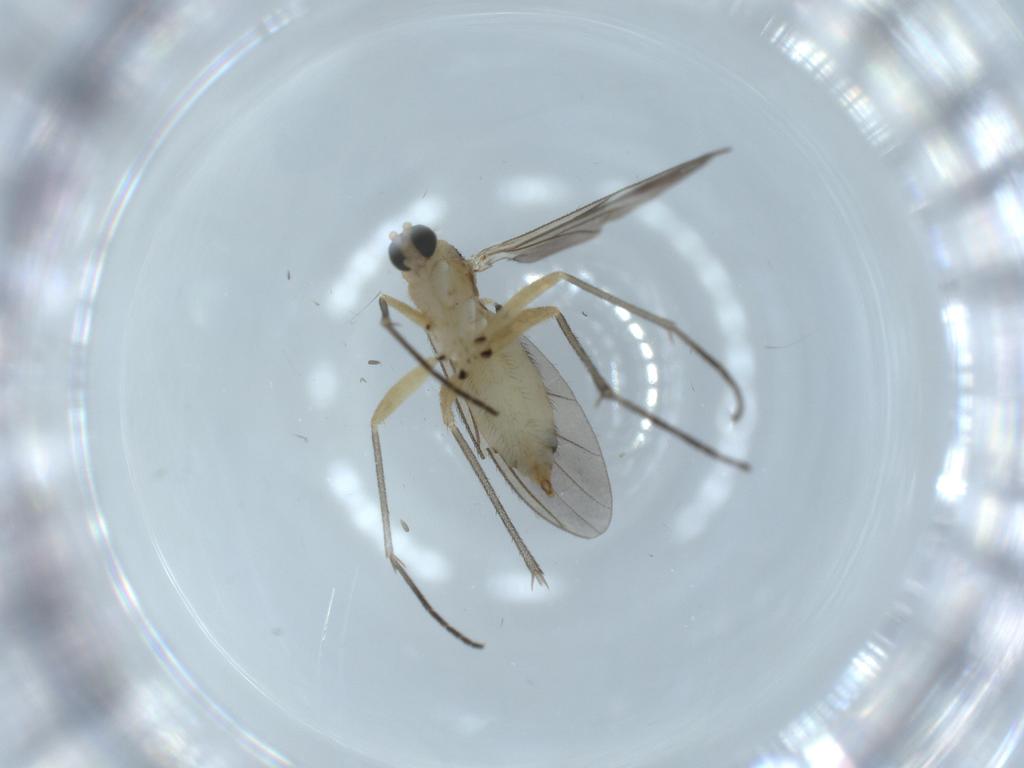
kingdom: Animalia
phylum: Arthropoda
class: Insecta
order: Diptera
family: Sciaridae
